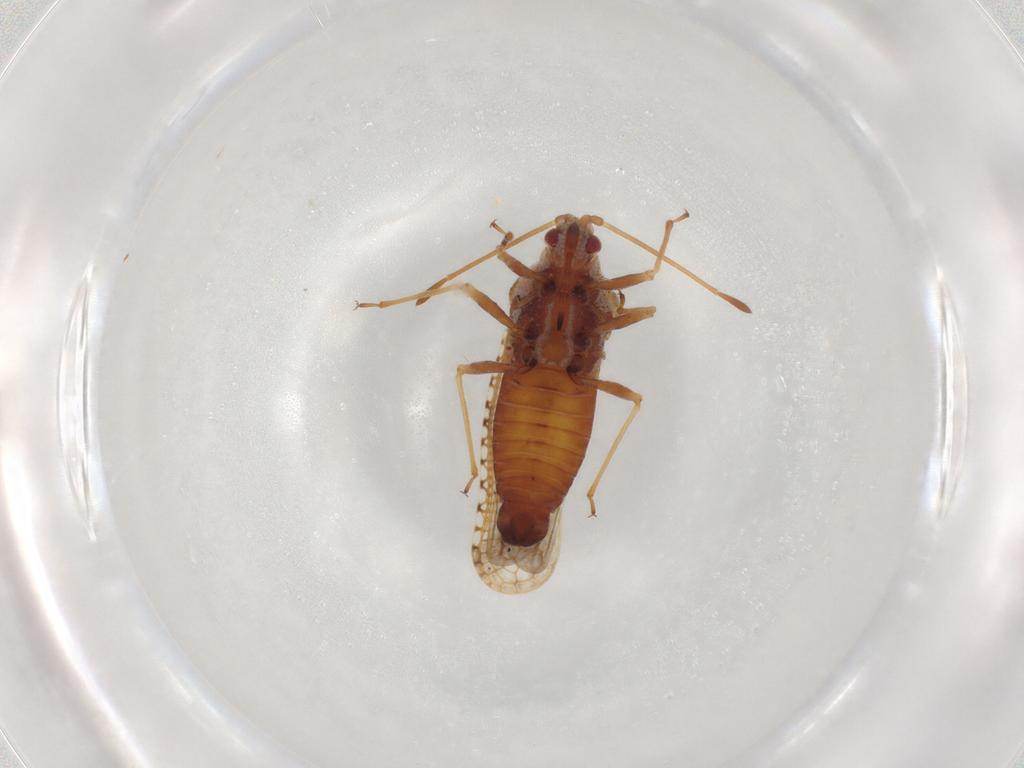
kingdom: Animalia
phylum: Arthropoda
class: Insecta
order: Hemiptera
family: Tingidae
